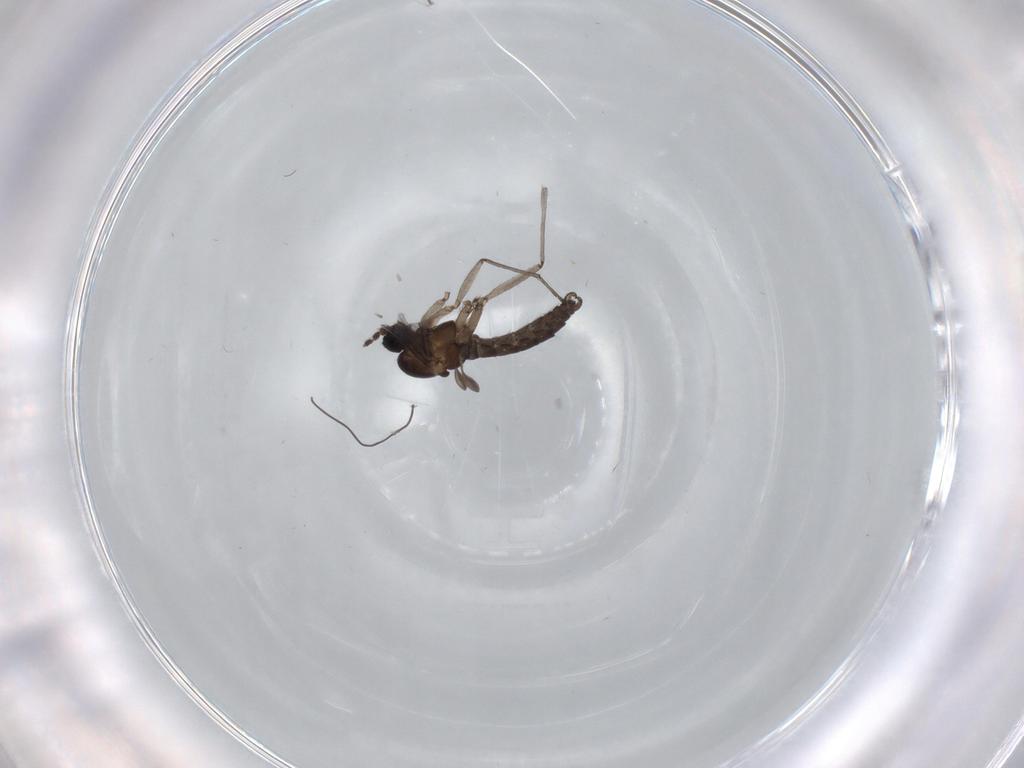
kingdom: Animalia
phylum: Arthropoda
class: Insecta
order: Diptera
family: Sciaridae
